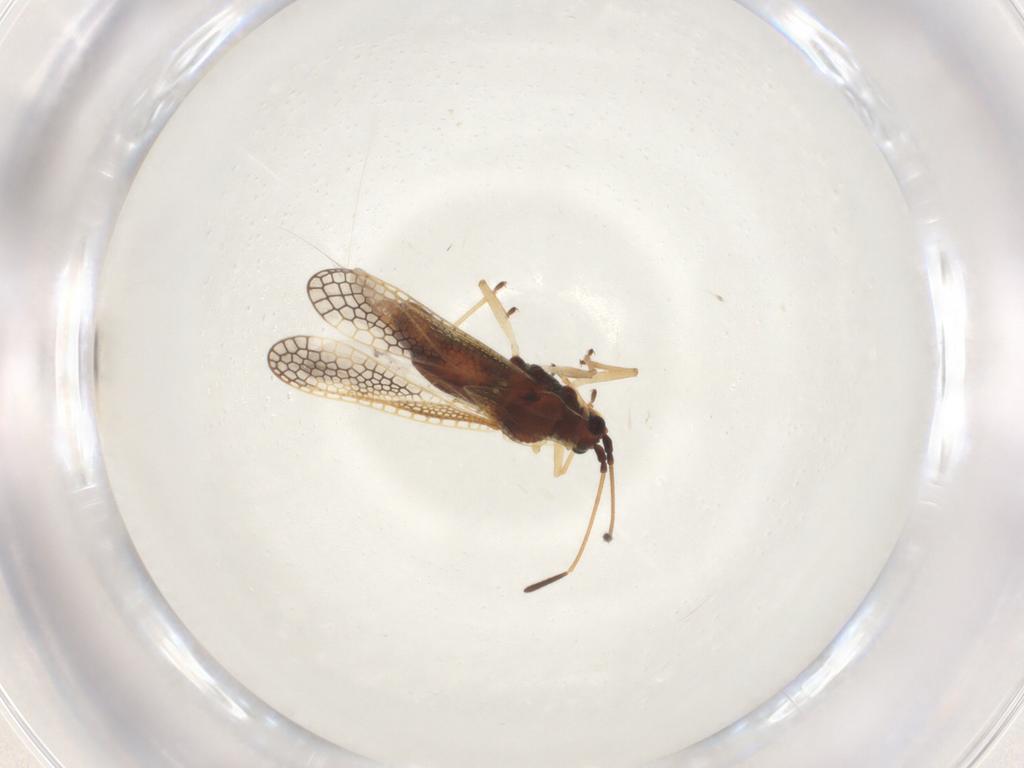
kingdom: Animalia
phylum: Arthropoda
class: Insecta
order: Hemiptera
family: Tingidae
